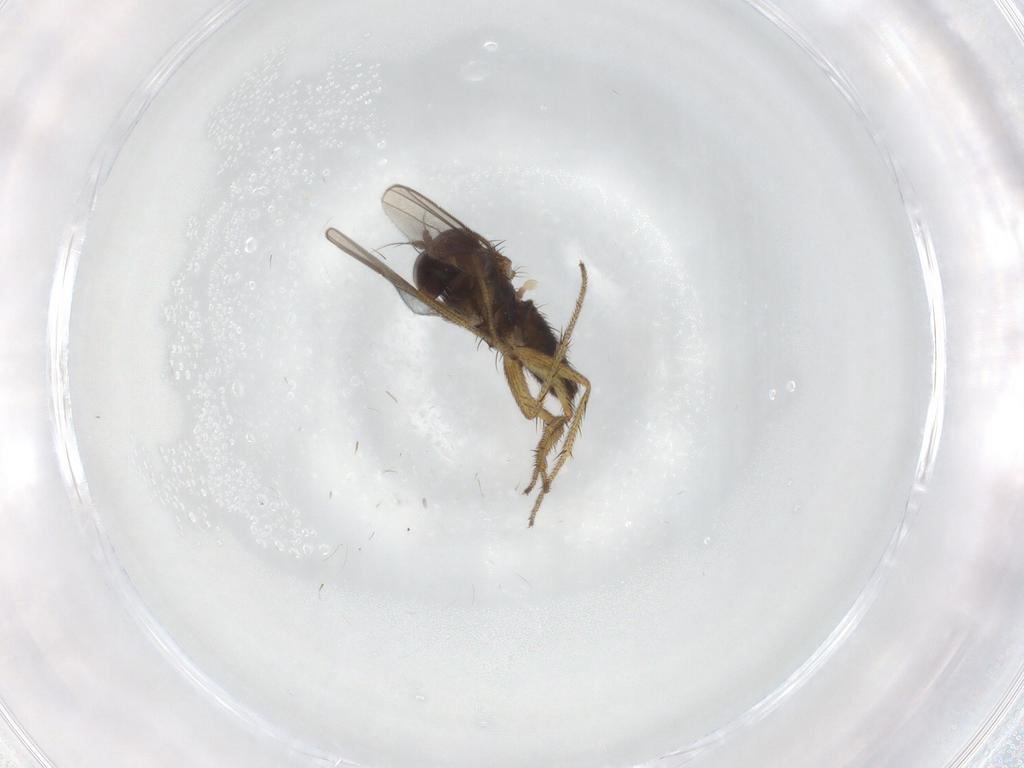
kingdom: Animalia
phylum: Arthropoda
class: Insecta
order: Diptera
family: Dolichopodidae
